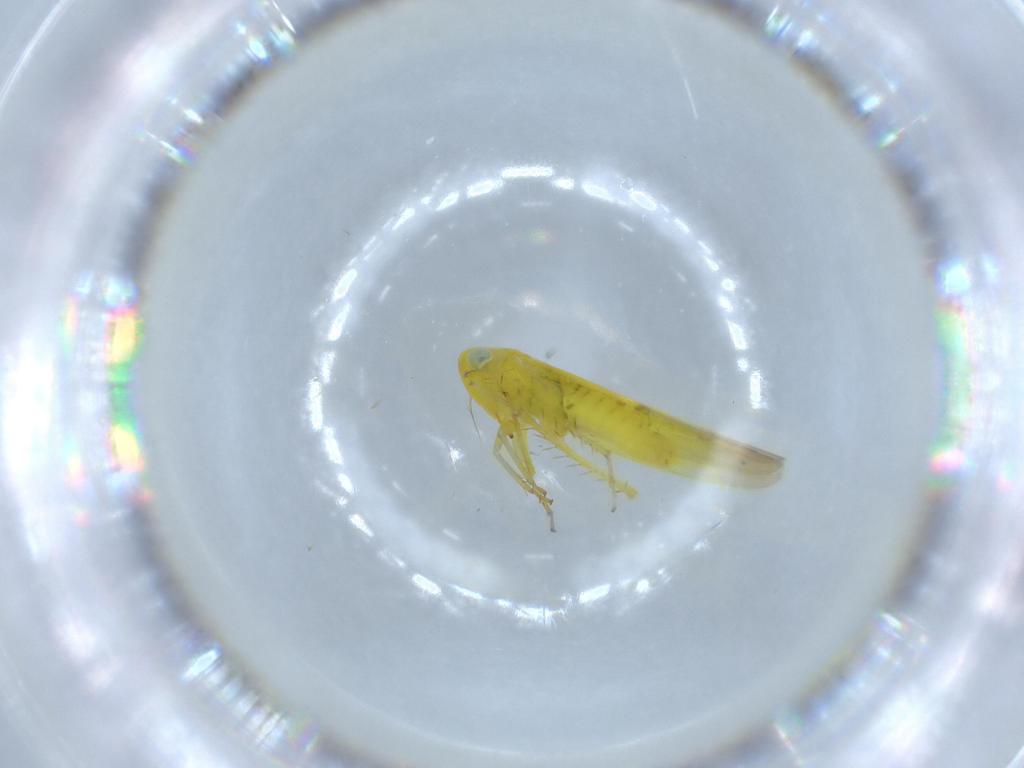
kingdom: Animalia
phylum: Arthropoda
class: Insecta
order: Hemiptera
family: Cicadellidae
